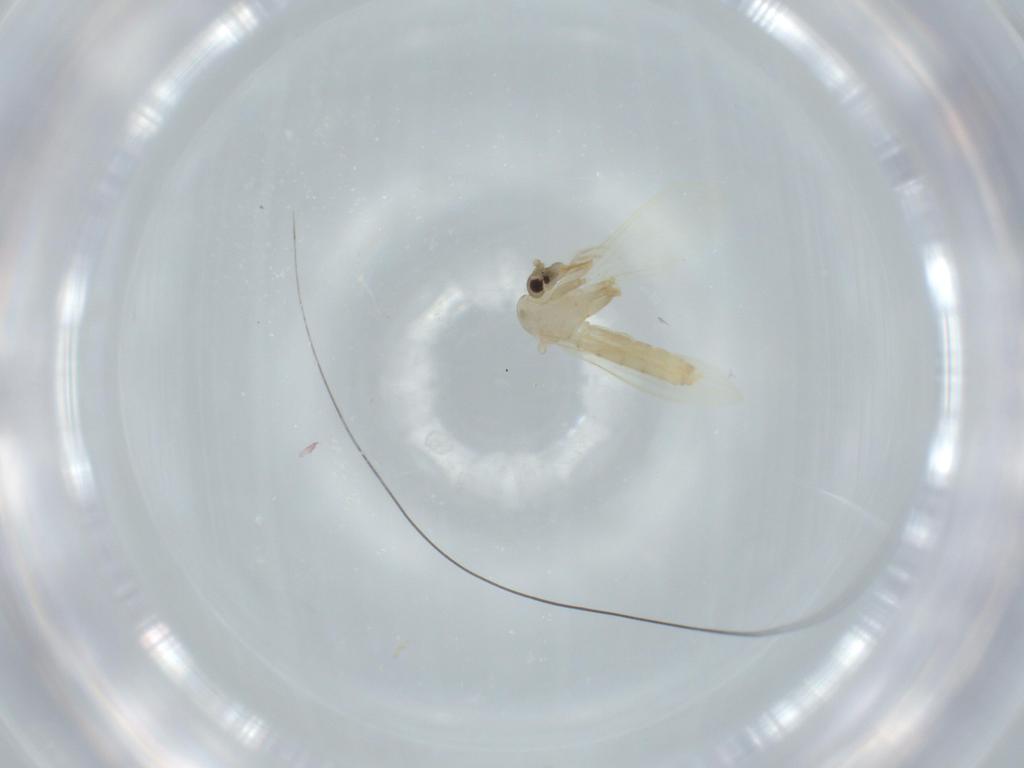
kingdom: Animalia
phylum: Arthropoda
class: Insecta
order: Diptera
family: Psychodidae
